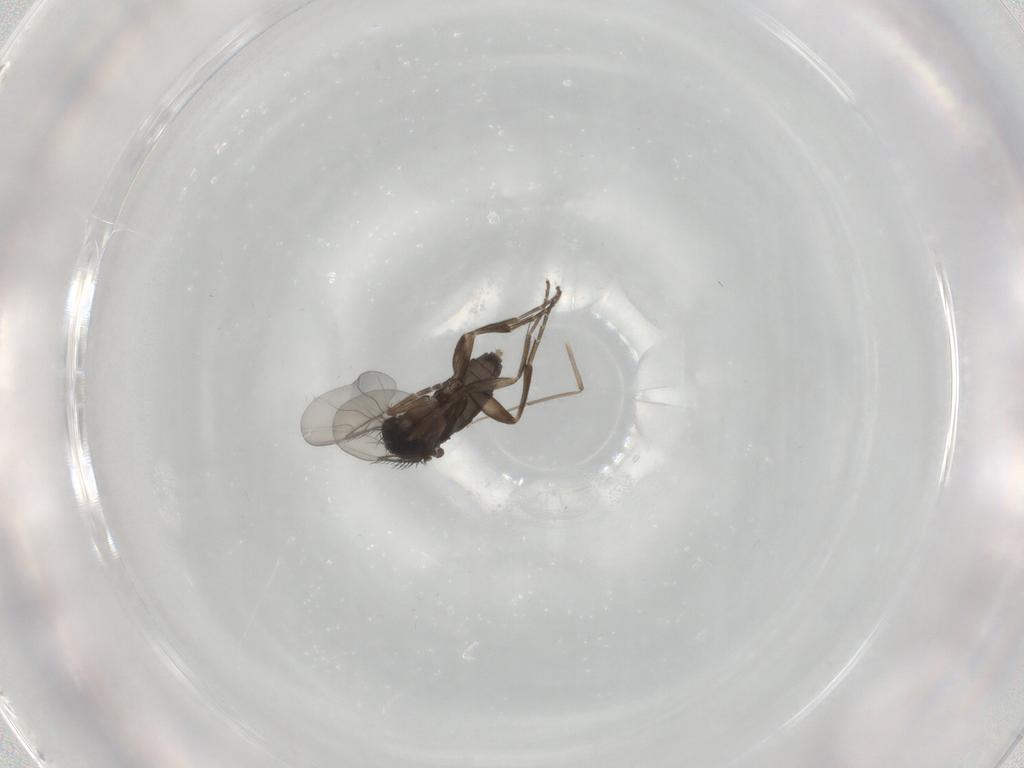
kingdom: Animalia
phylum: Arthropoda
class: Insecta
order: Diptera
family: Phoridae
